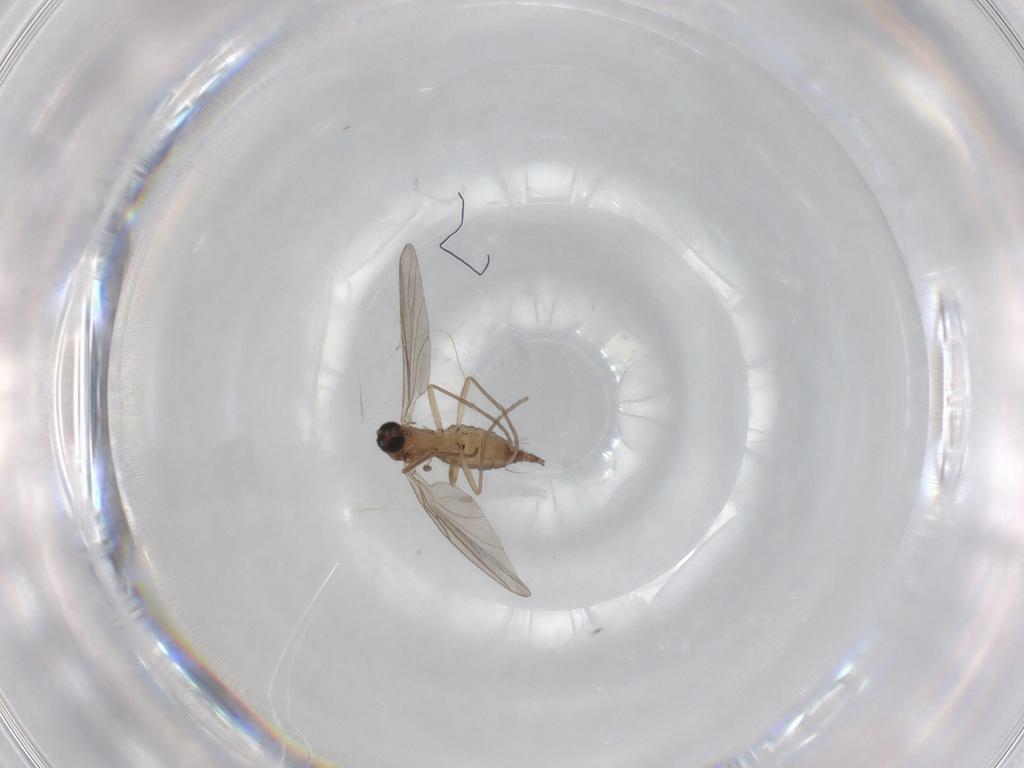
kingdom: Animalia
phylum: Arthropoda
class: Insecta
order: Diptera
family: Sciaridae
